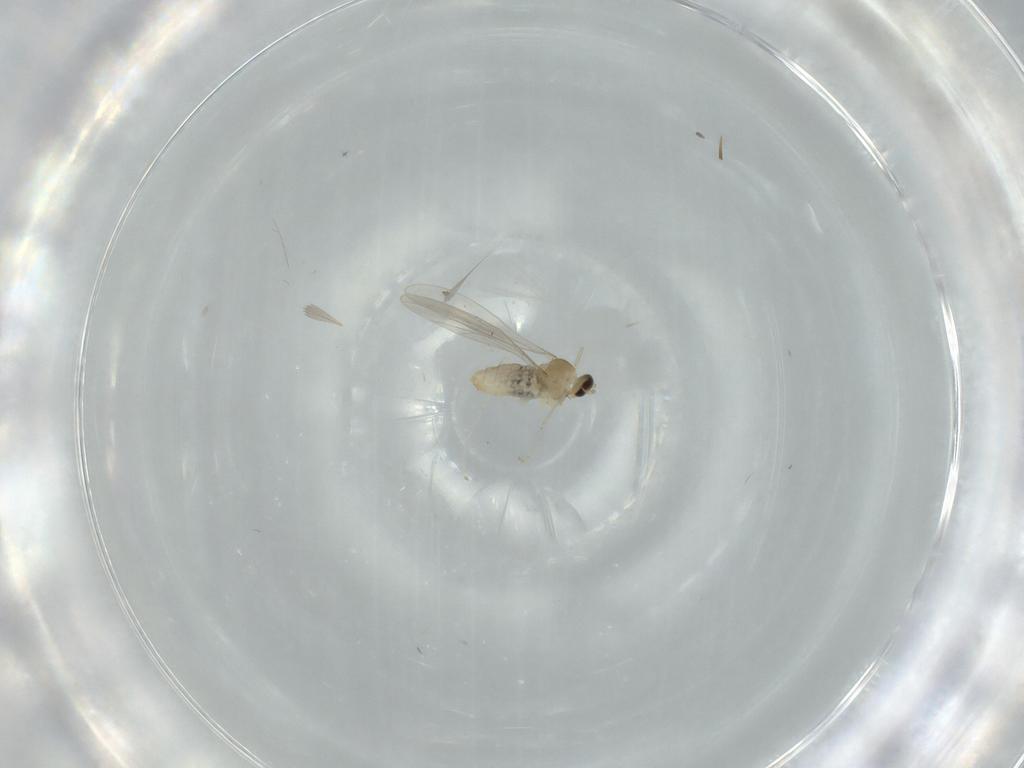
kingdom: Animalia
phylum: Arthropoda
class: Insecta
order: Diptera
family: Cecidomyiidae
